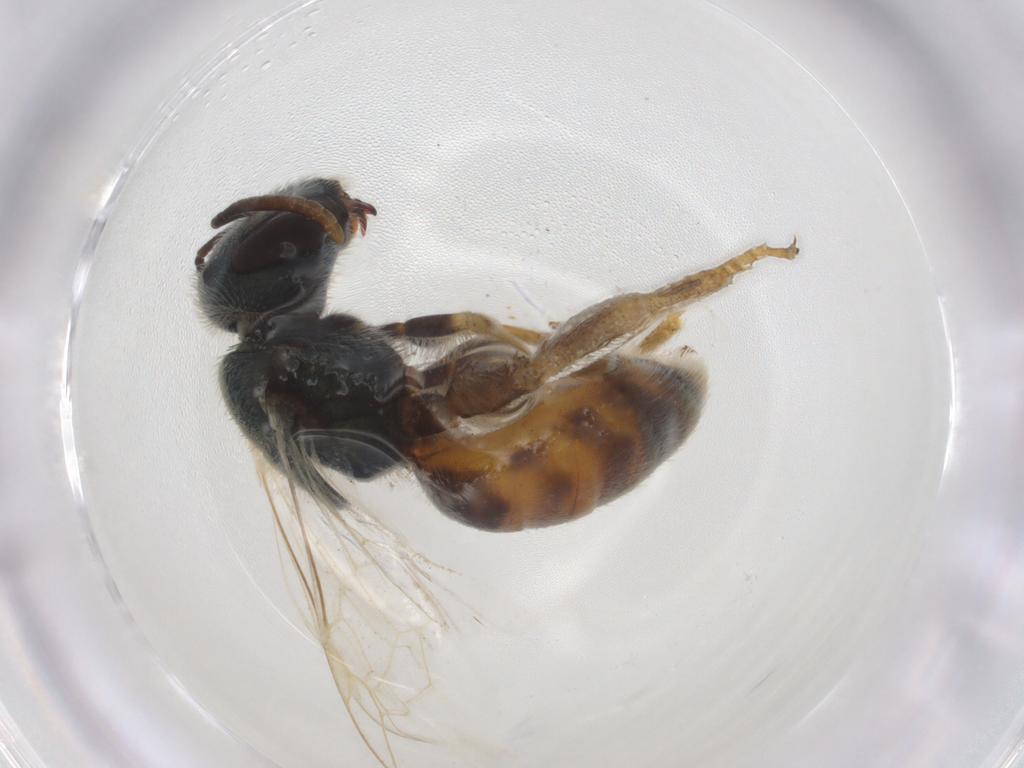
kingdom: Animalia
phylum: Arthropoda
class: Insecta
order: Hymenoptera
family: Halictidae
